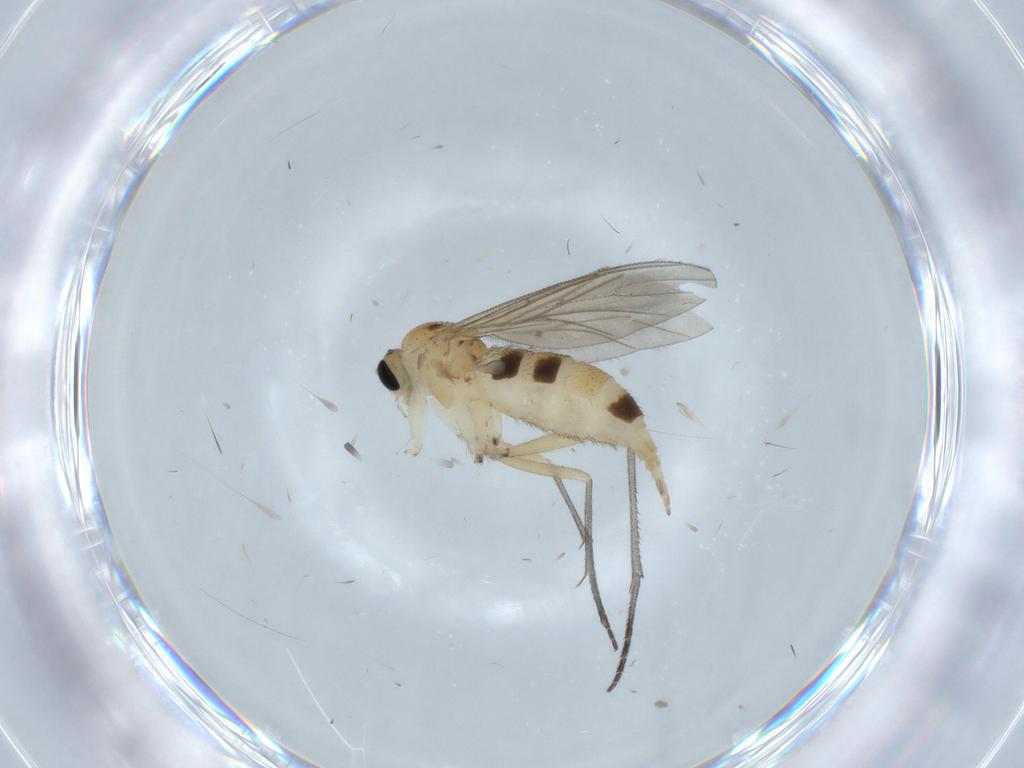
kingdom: Animalia
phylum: Arthropoda
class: Insecta
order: Diptera
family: Sciaridae
